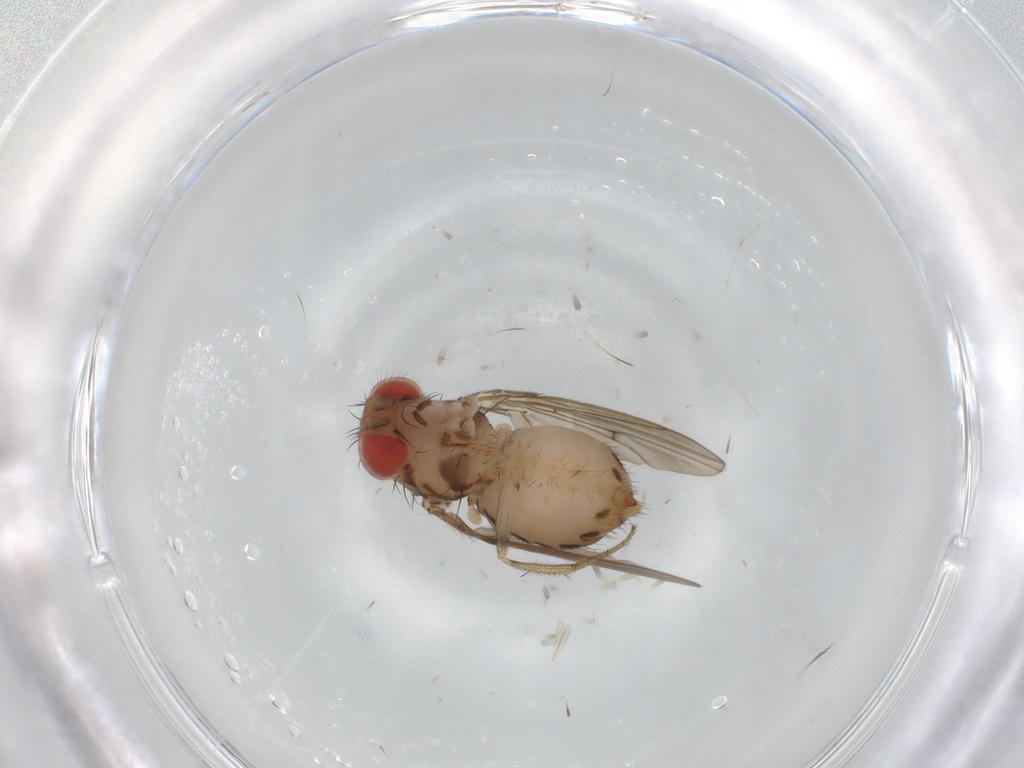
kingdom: Animalia
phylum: Arthropoda
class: Insecta
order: Diptera
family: Drosophilidae
